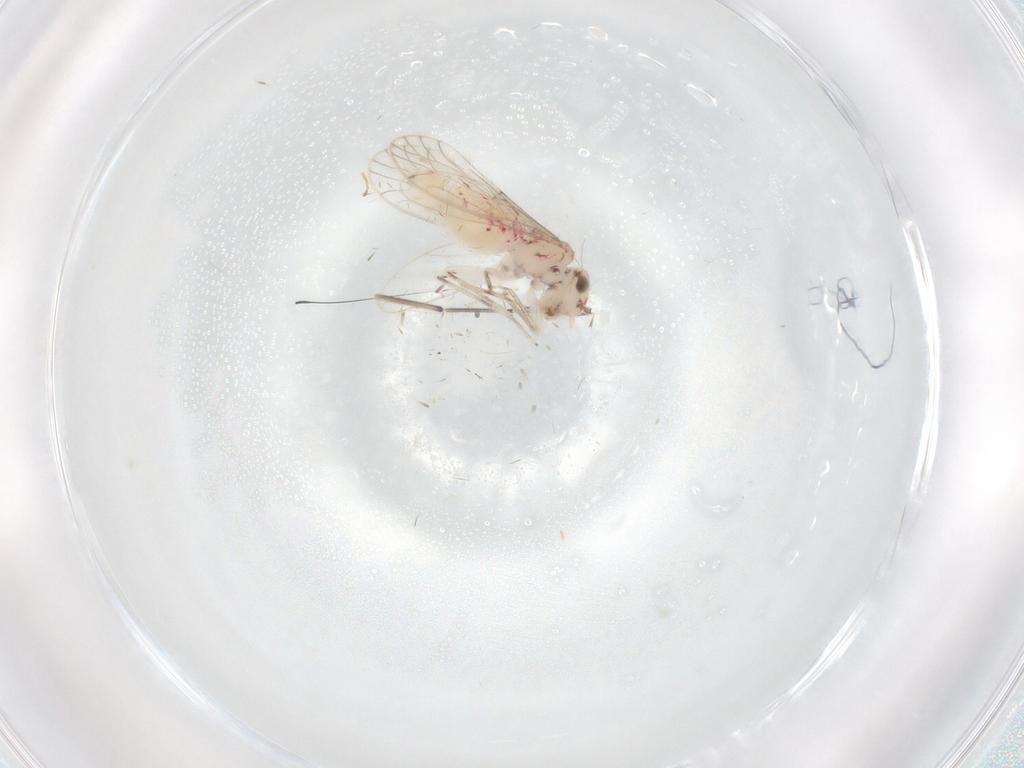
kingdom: Animalia
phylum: Arthropoda
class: Insecta
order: Psocodea
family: Caeciliusidae
